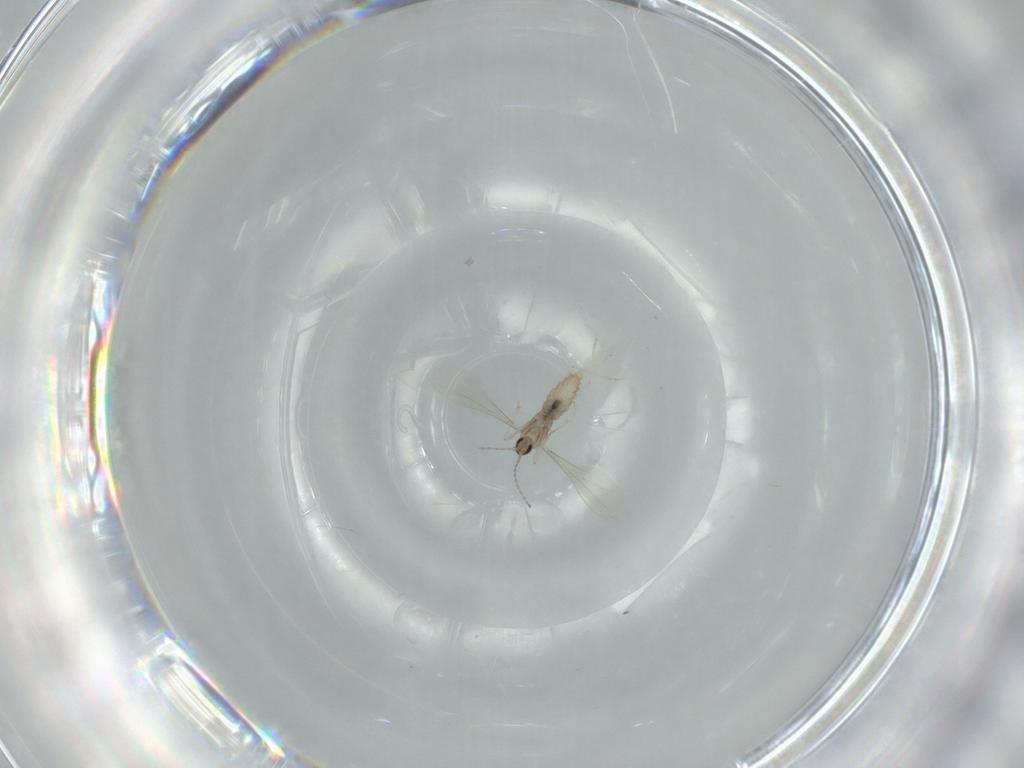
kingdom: Animalia
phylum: Arthropoda
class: Insecta
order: Diptera
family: Cecidomyiidae
